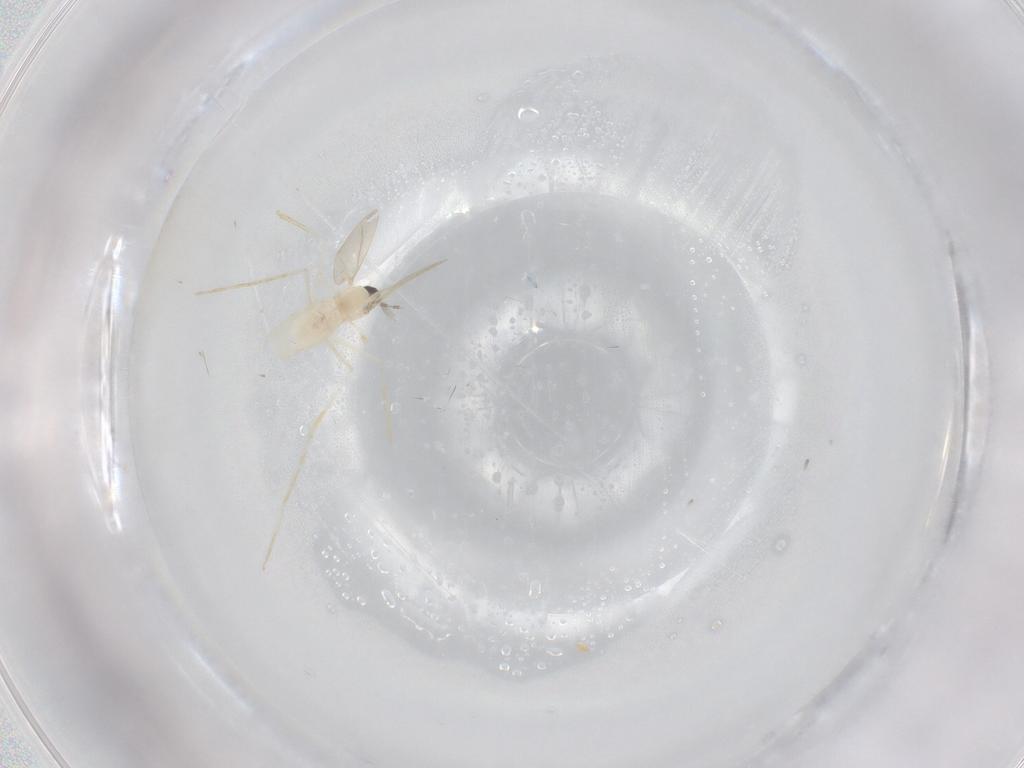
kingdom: Animalia
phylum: Arthropoda
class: Insecta
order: Diptera
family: Cecidomyiidae
